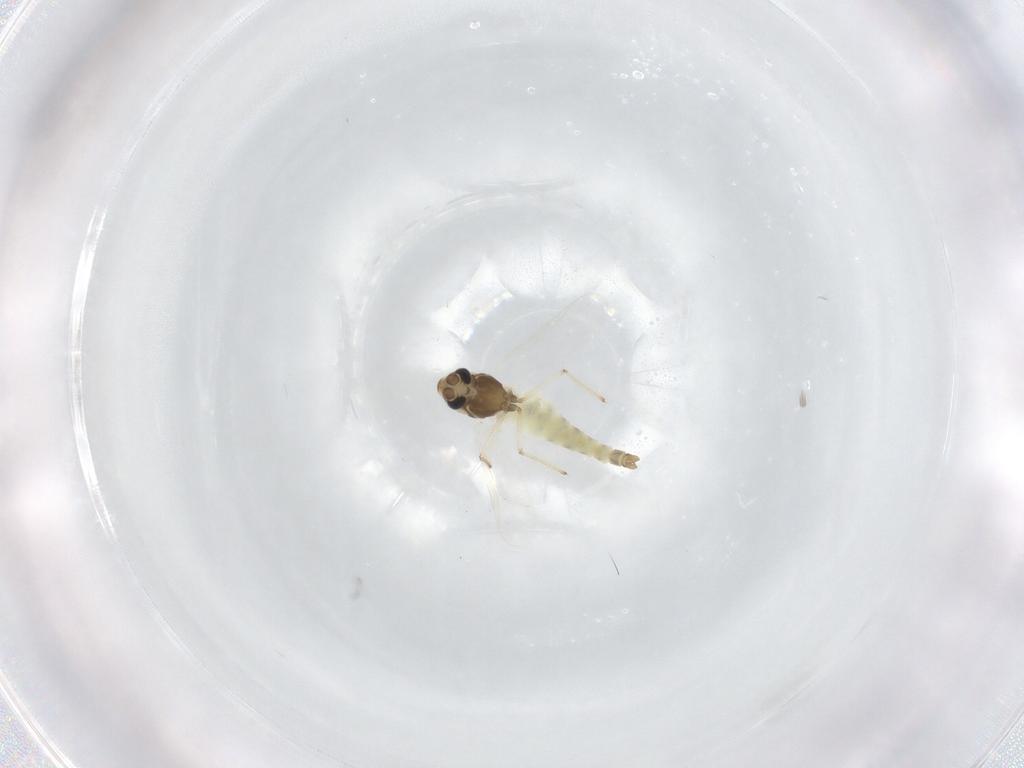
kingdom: Animalia
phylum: Arthropoda
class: Insecta
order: Diptera
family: Chironomidae
